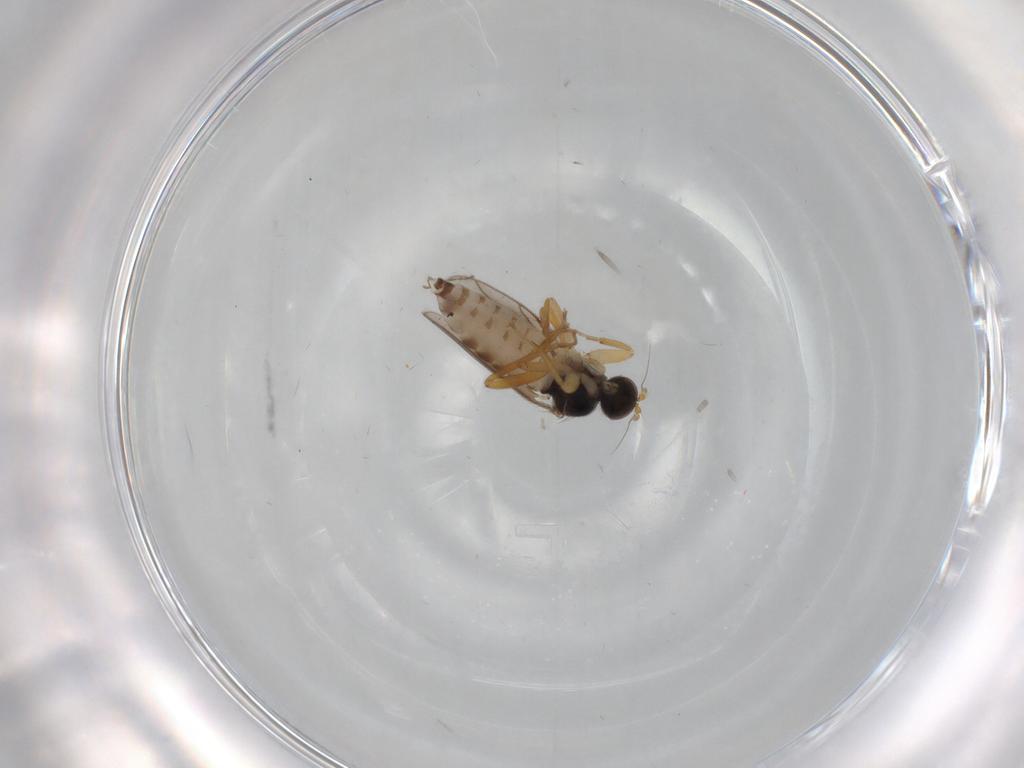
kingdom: Animalia
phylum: Arthropoda
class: Insecta
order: Diptera
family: Hybotidae
